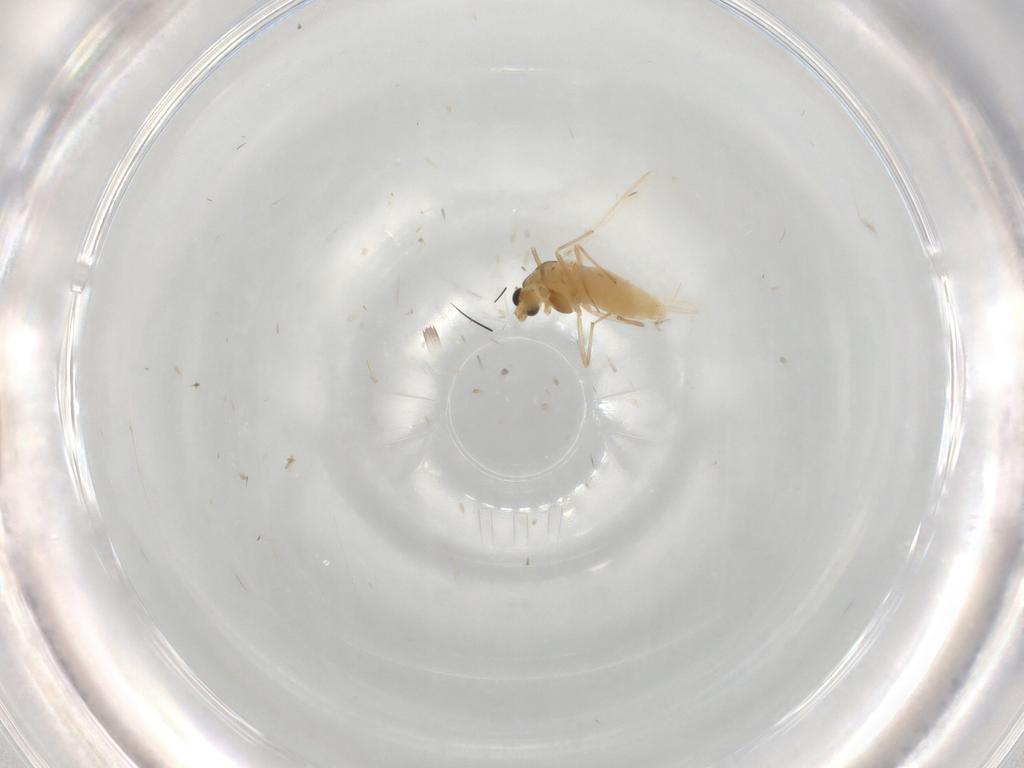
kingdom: Animalia
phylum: Arthropoda
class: Insecta
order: Diptera
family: Chironomidae
